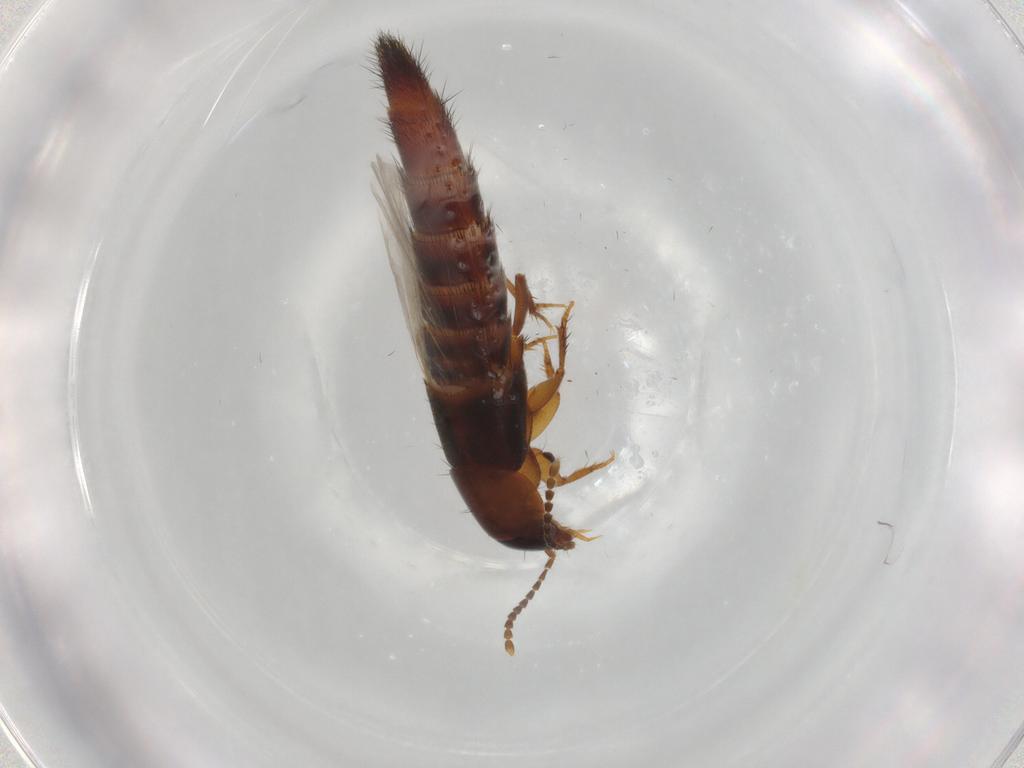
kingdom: Animalia
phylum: Arthropoda
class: Insecta
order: Coleoptera
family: Staphylinidae
